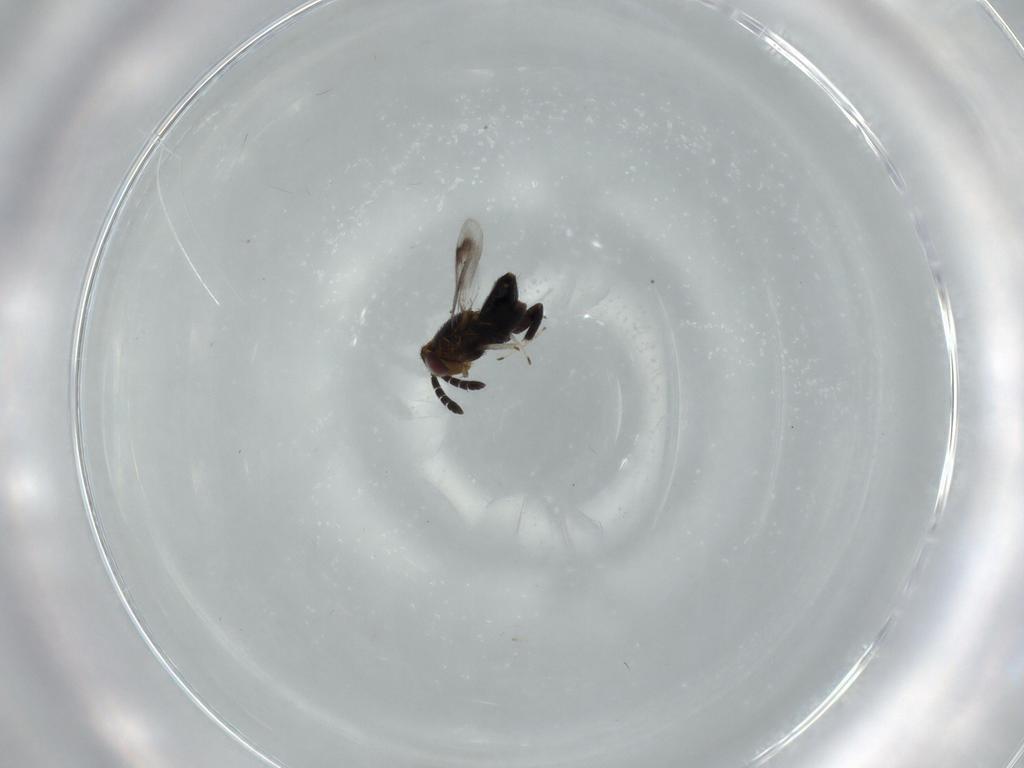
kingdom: Animalia
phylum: Arthropoda
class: Insecta
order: Hymenoptera
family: Aphelinidae
